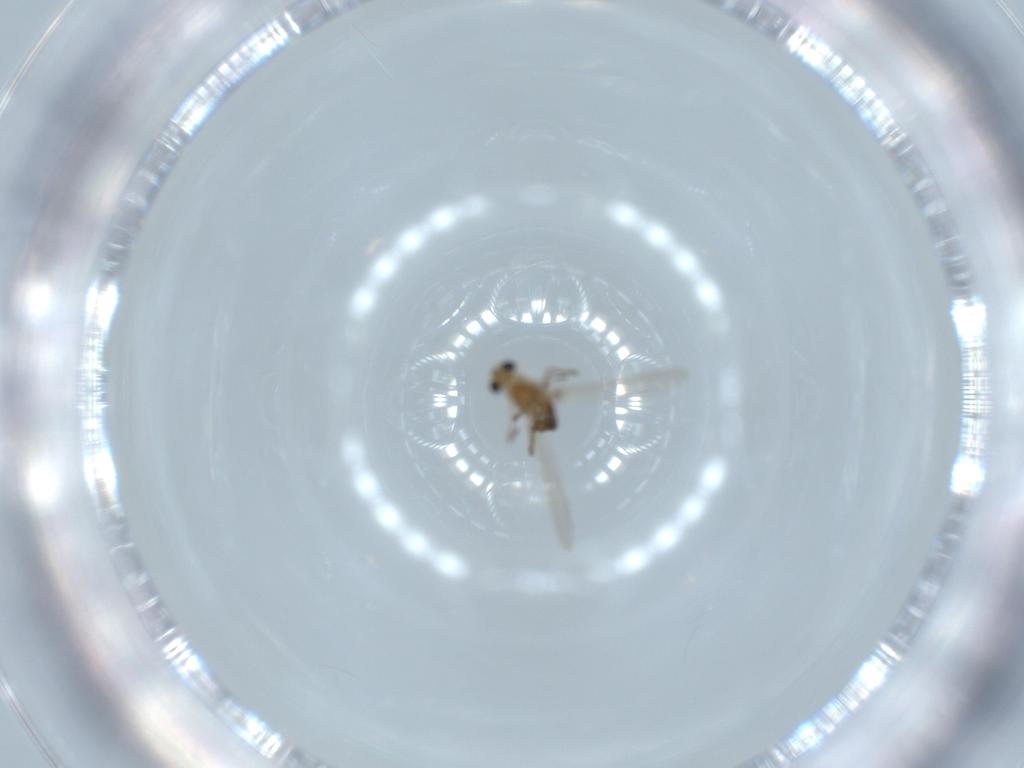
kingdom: Animalia
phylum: Arthropoda
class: Insecta
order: Diptera
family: Chironomidae
